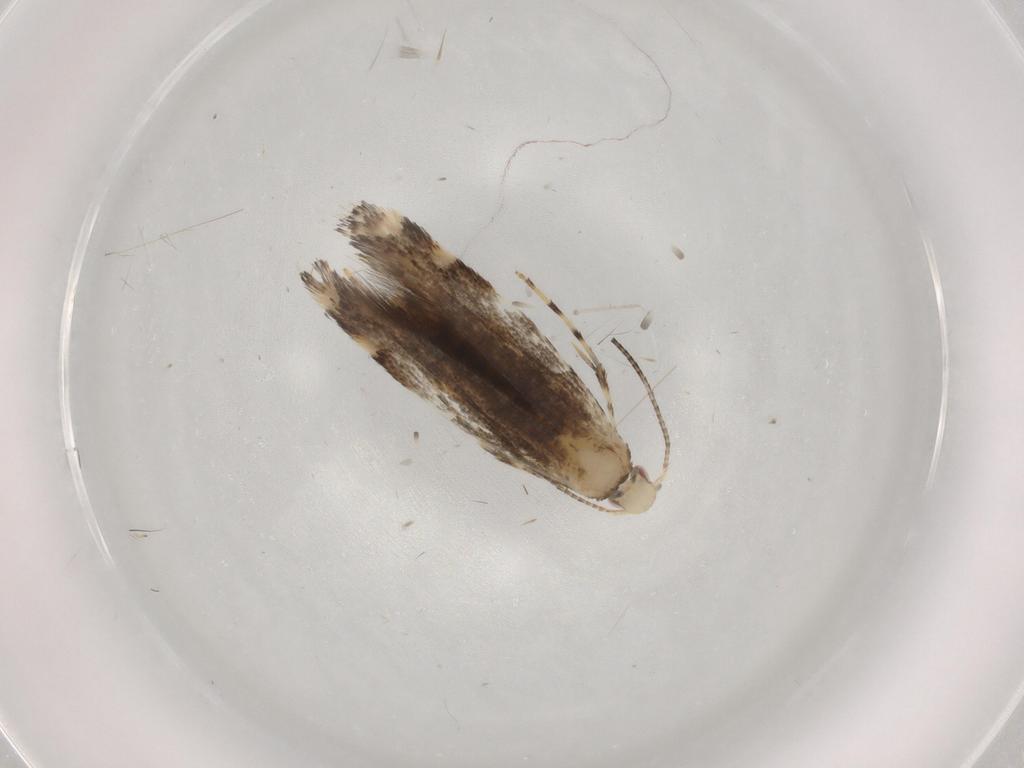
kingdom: Animalia
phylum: Arthropoda
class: Insecta
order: Lepidoptera
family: Gracillariidae
